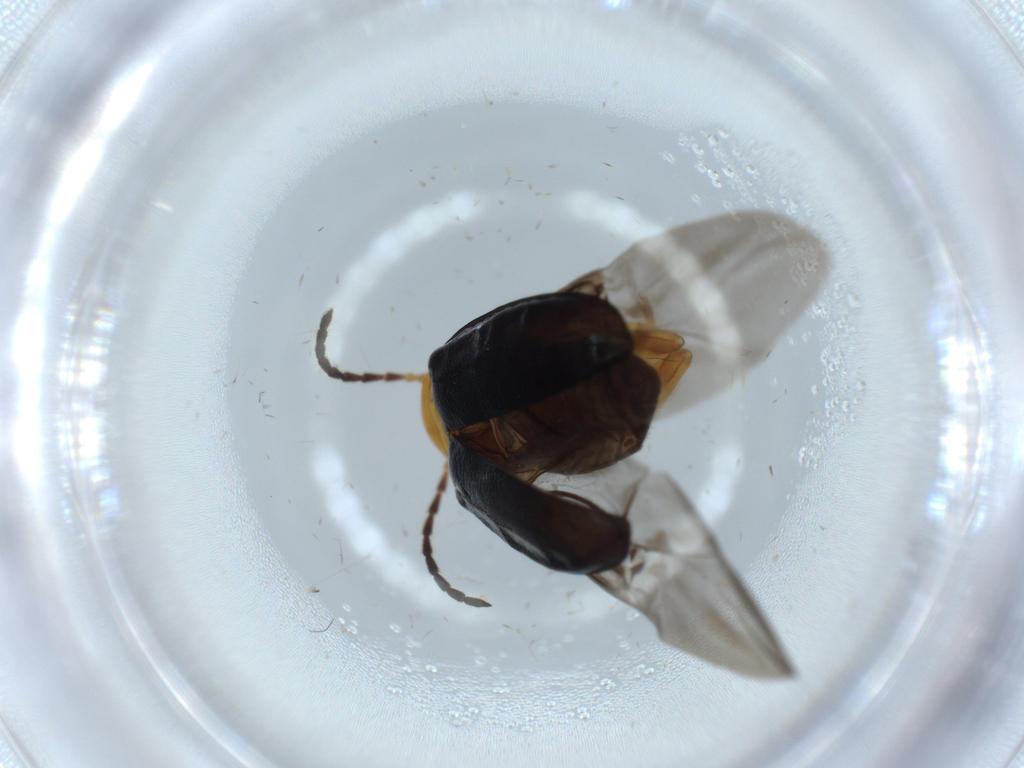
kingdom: Animalia
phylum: Arthropoda
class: Insecta
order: Coleoptera
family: Chrysomelidae
